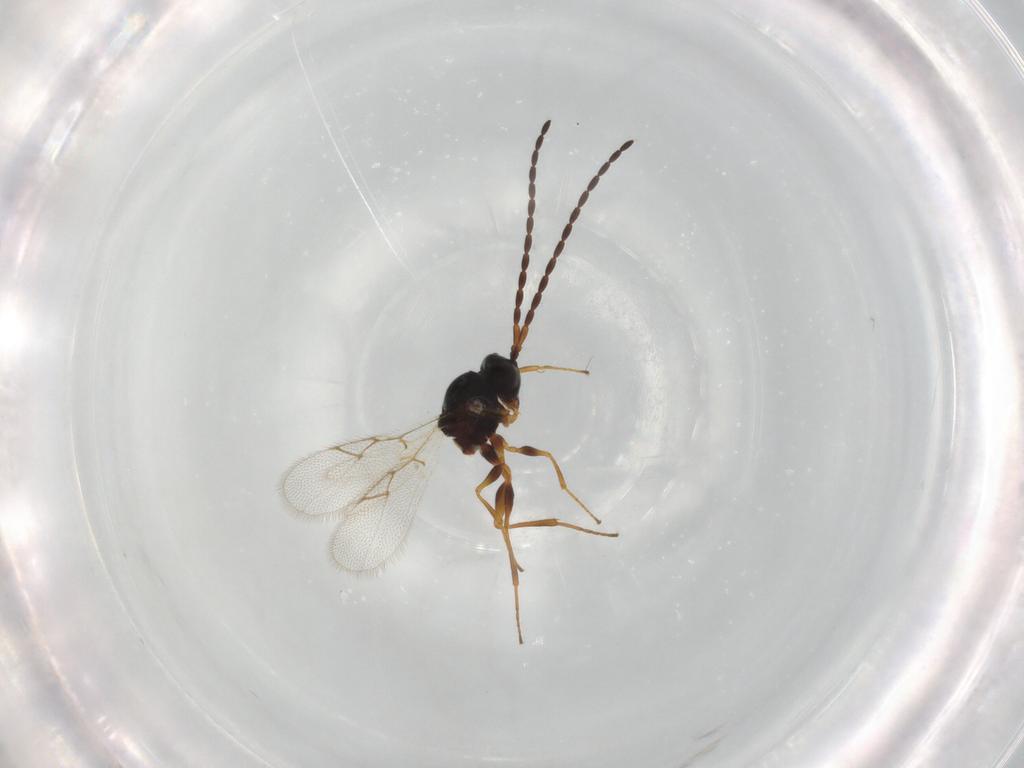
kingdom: Animalia
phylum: Arthropoda
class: Insecta
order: Hymenoptera
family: Figitidae
